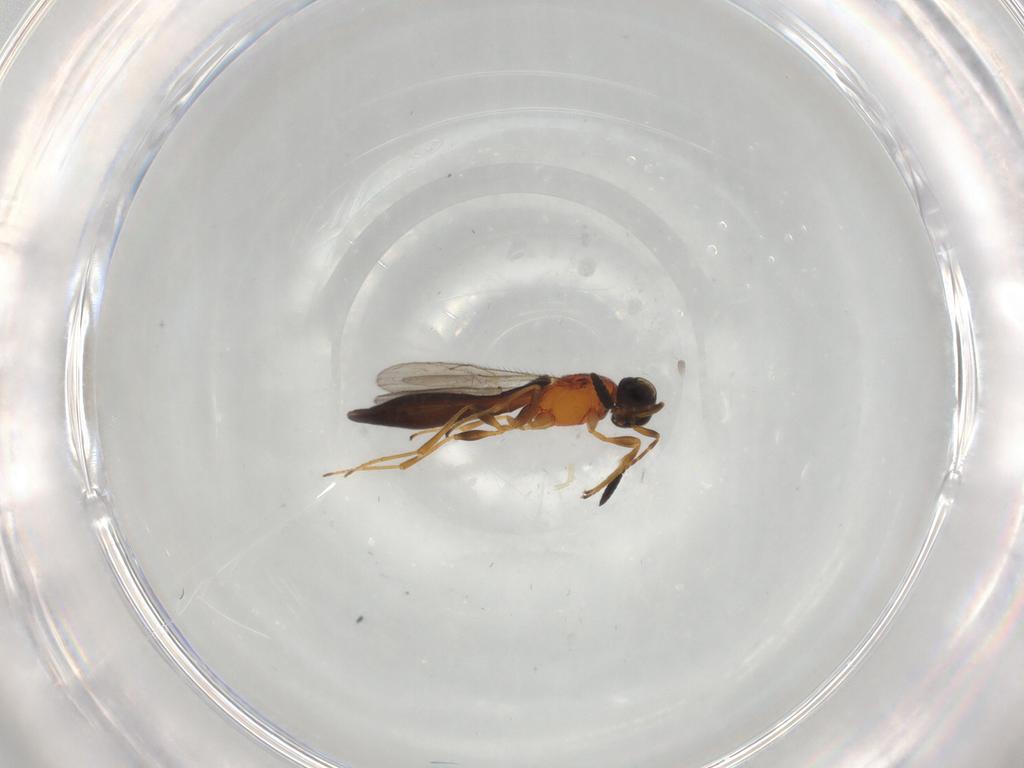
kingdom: Animalia
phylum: Arthropoda
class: Insecta
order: Hymenoptera
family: Scelionidae
